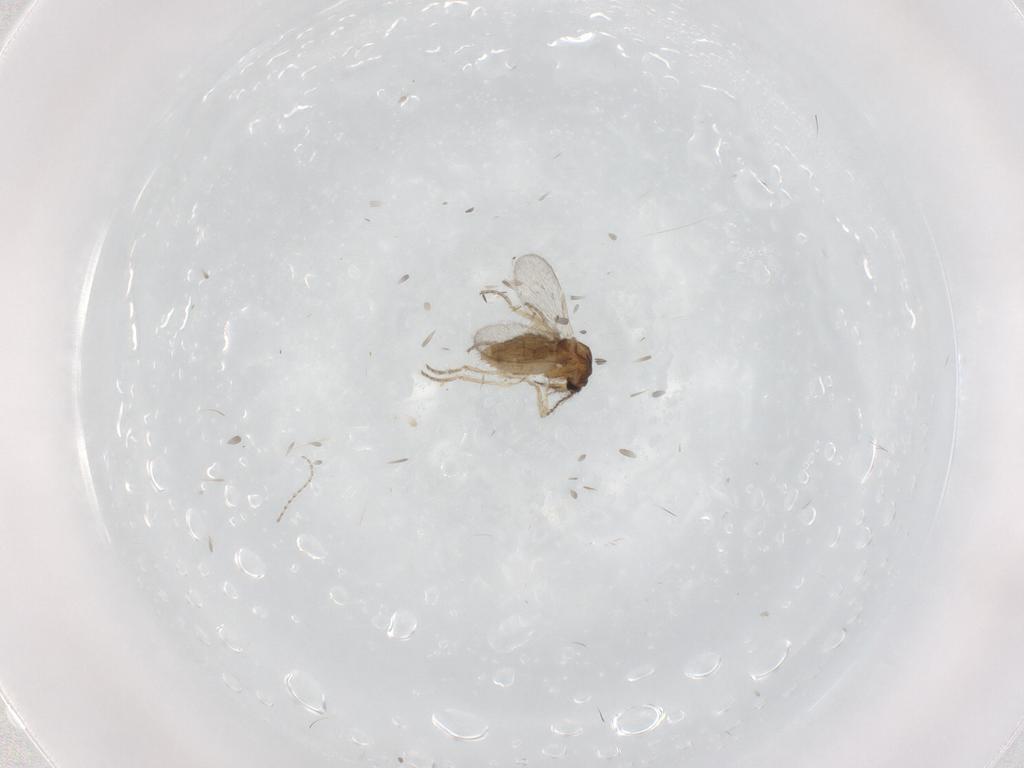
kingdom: Animalia
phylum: Arthropoda
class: Insecta
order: Diptera
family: Ceratopogonidae
